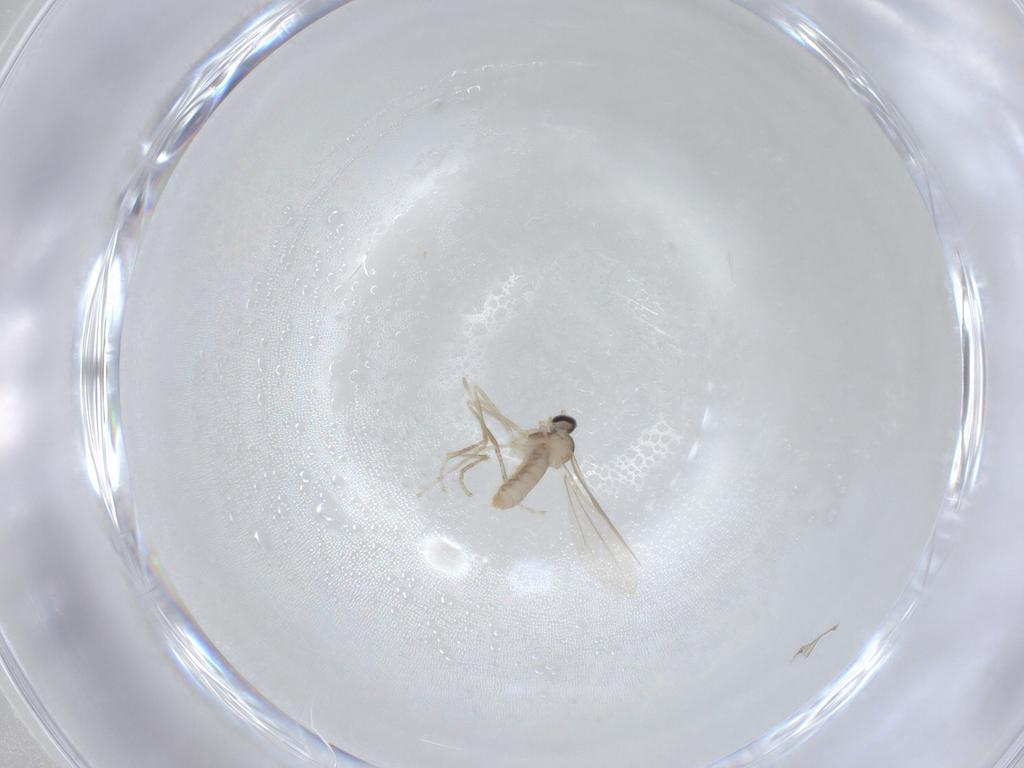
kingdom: Animalia
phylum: Arthropoda
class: Insecta
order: Diptera
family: Cecidomyiidae
